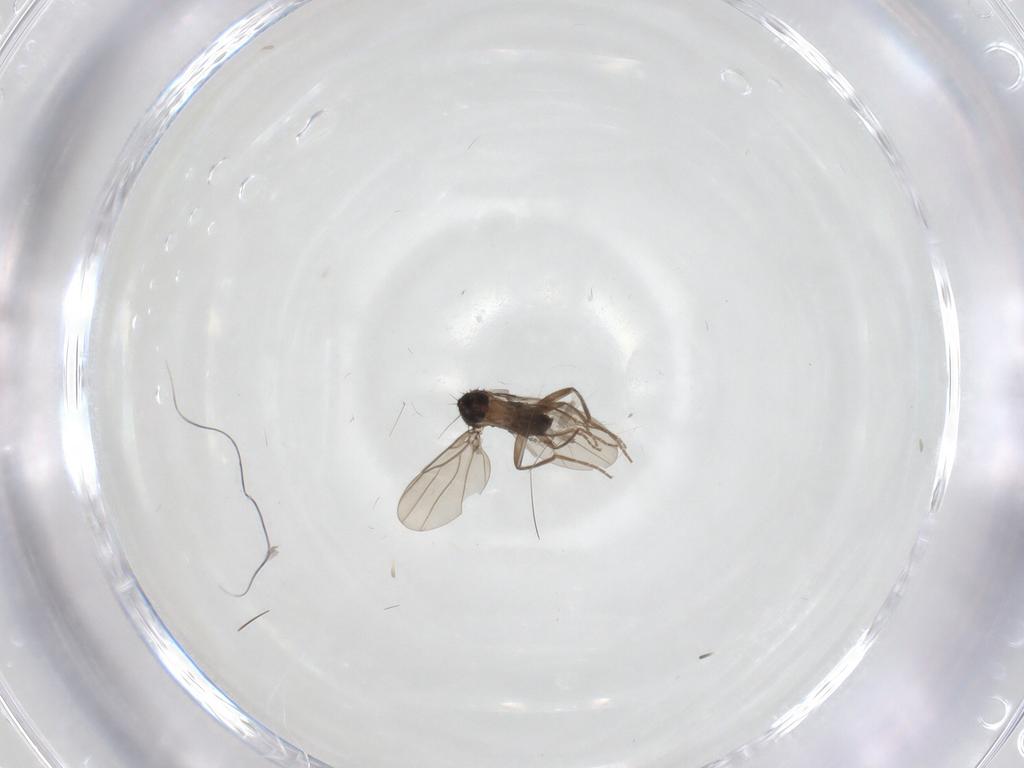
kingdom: Animalia
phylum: Arthropoda
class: Insecta
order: Diptera
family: Phoridae
